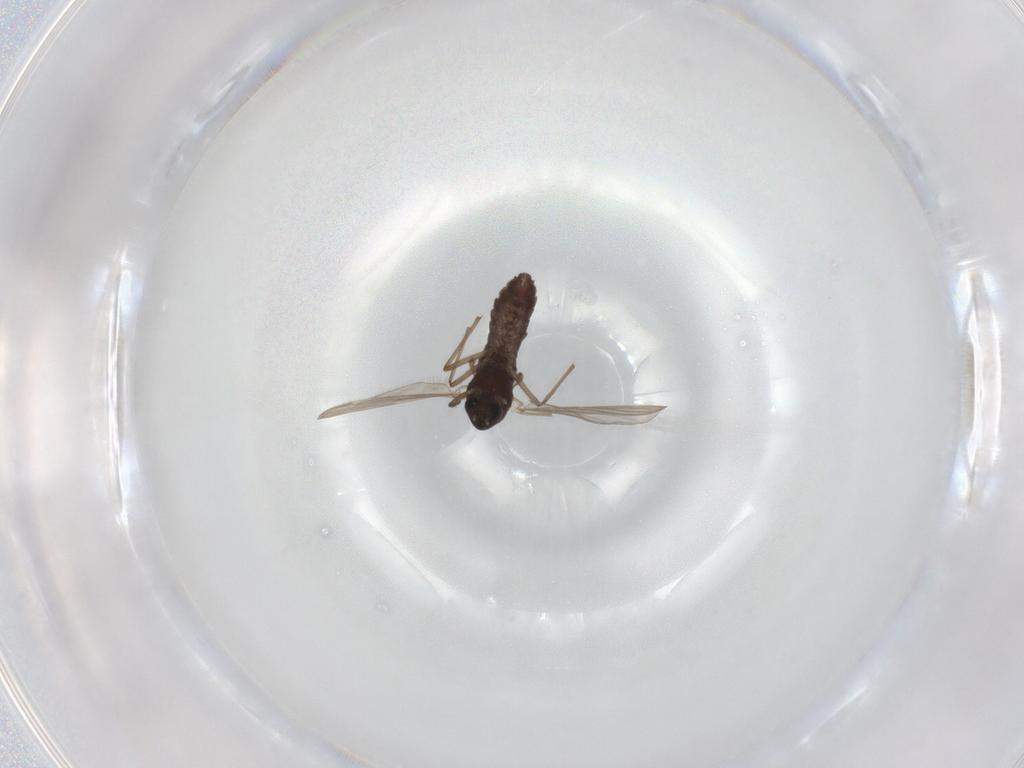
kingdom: Animalia
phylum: Arthropoda
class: Insecta
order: Diptera
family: Chironomidae
